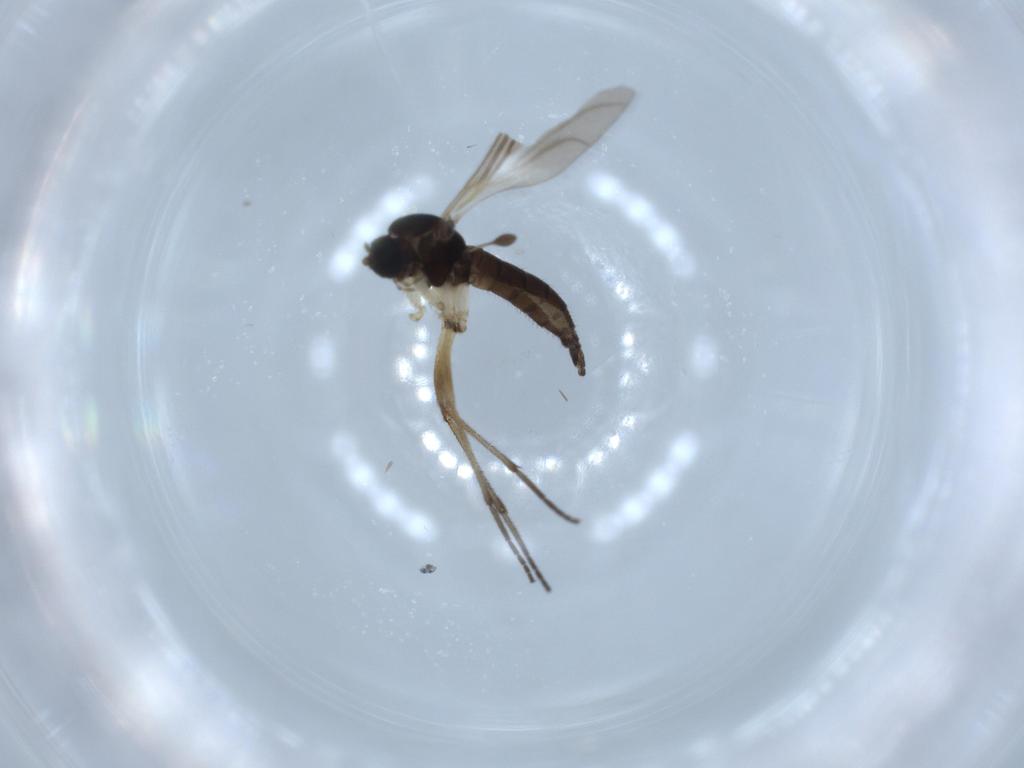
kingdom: Animalia
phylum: Arthropoda
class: Insecta
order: Diptera
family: Sciaridae
